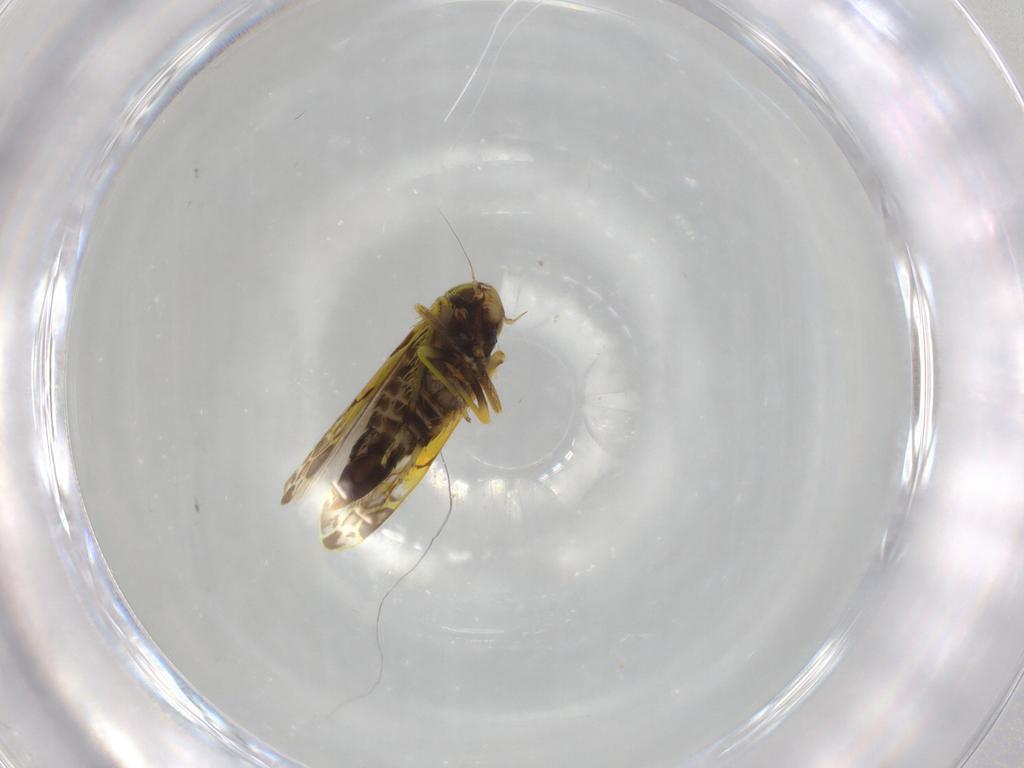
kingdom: Animalia
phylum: Arthropoda
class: Insecta
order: Hemiptera
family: Cicadellidae
